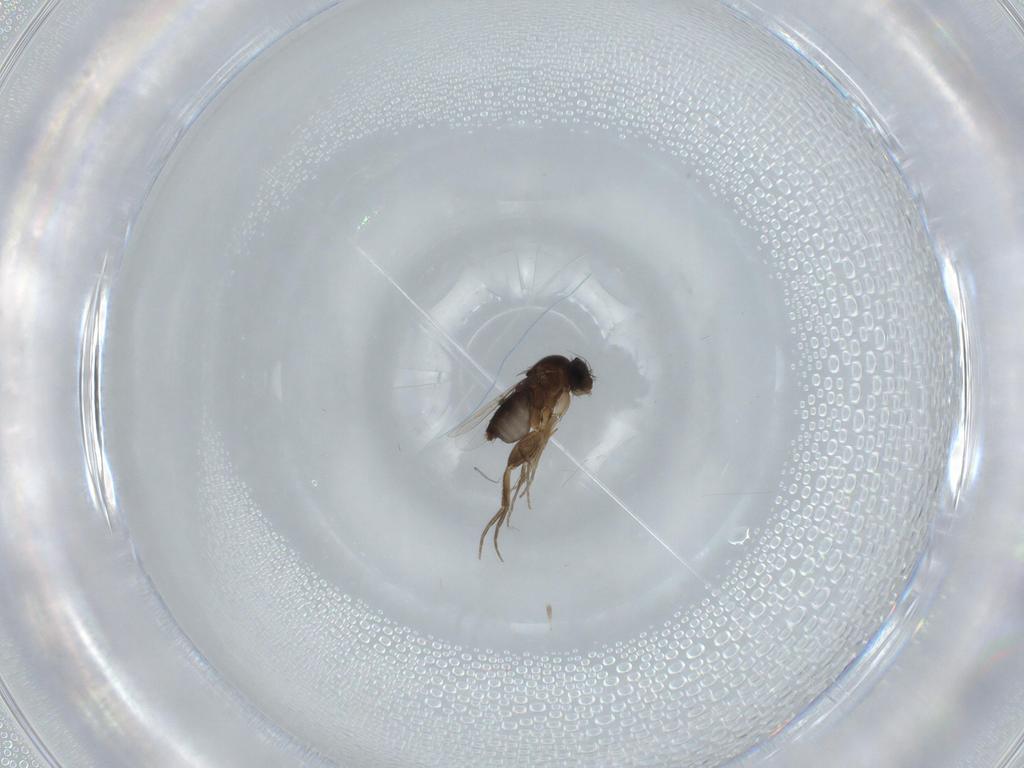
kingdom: Animalia
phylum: Arthropoda
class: Insecta
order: Diptera
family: Phoridae
